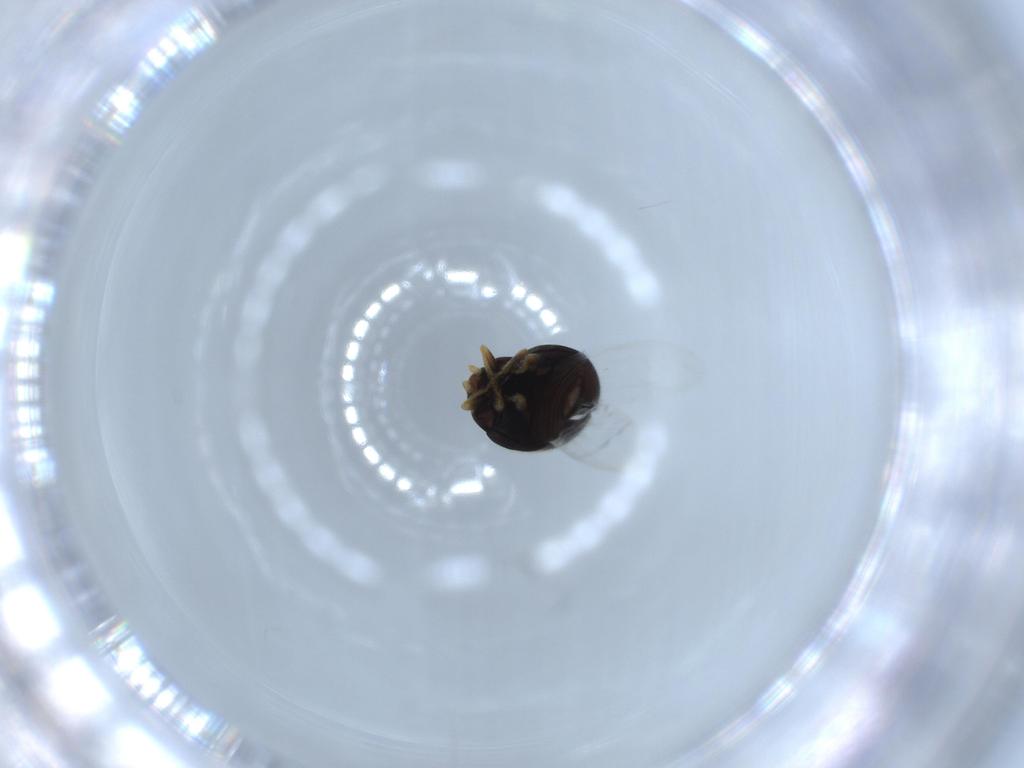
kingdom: Animalia
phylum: Arthropoda
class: Insecta
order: Coleoptera
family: Coccinellidae
